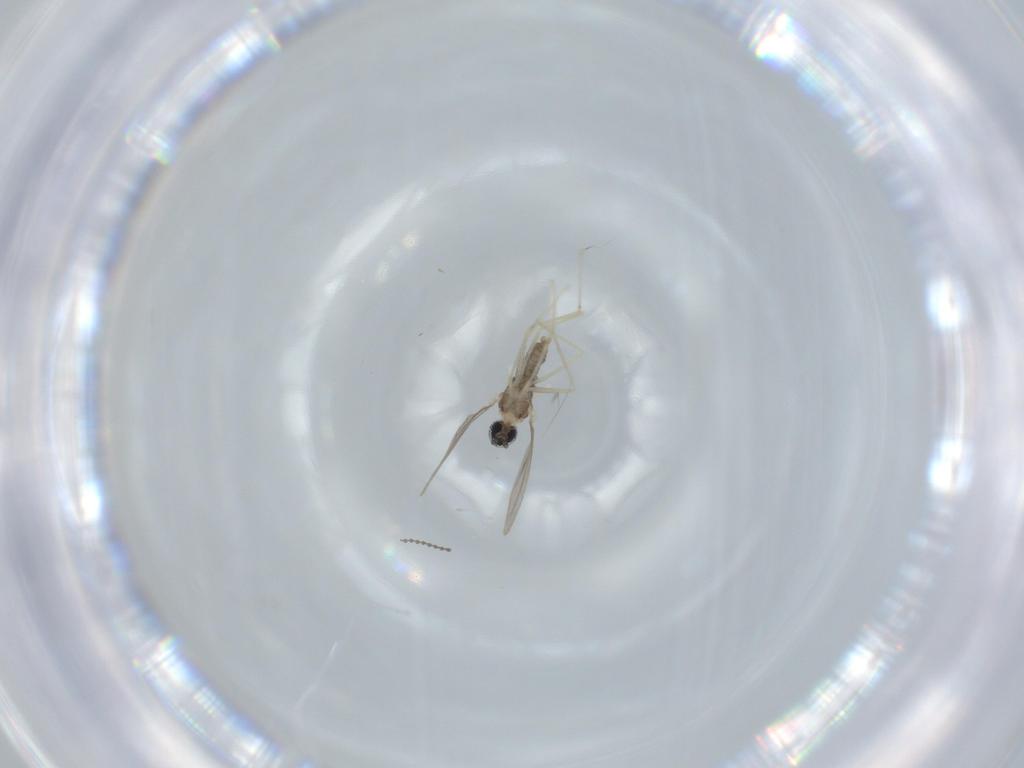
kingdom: Animalia
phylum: Arthropoda
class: Insecta
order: Diptera
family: Cecidomyiidae
